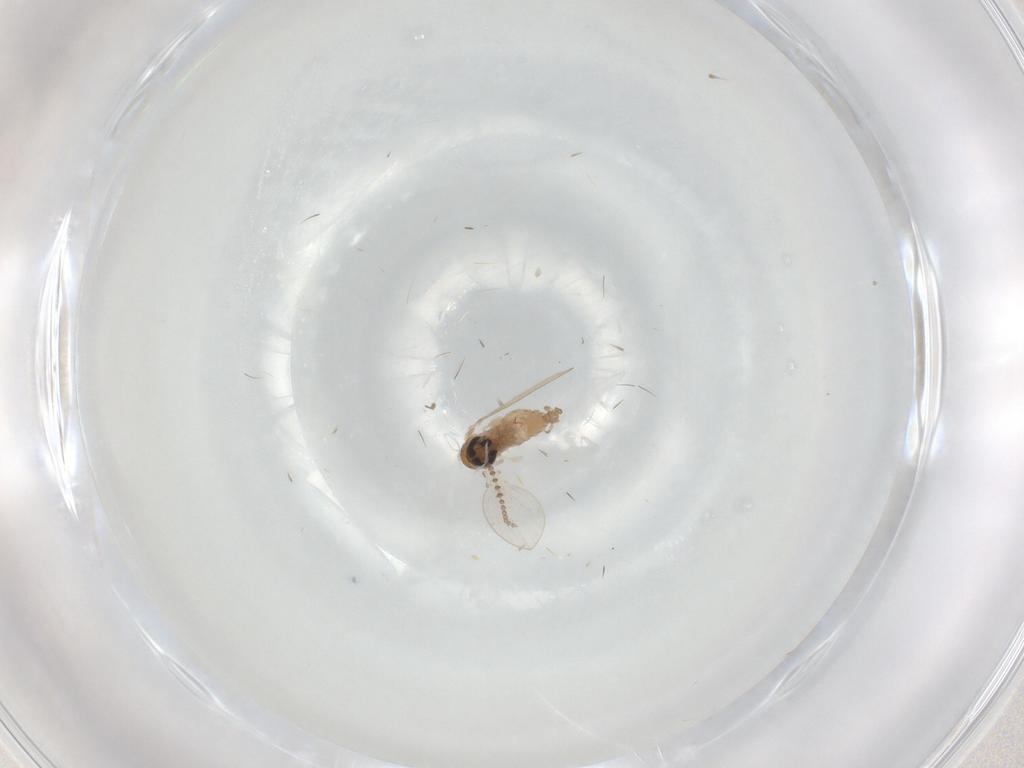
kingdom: Animalia
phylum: Arthropoda
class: Insecta
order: Diptera
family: Psychodidae
